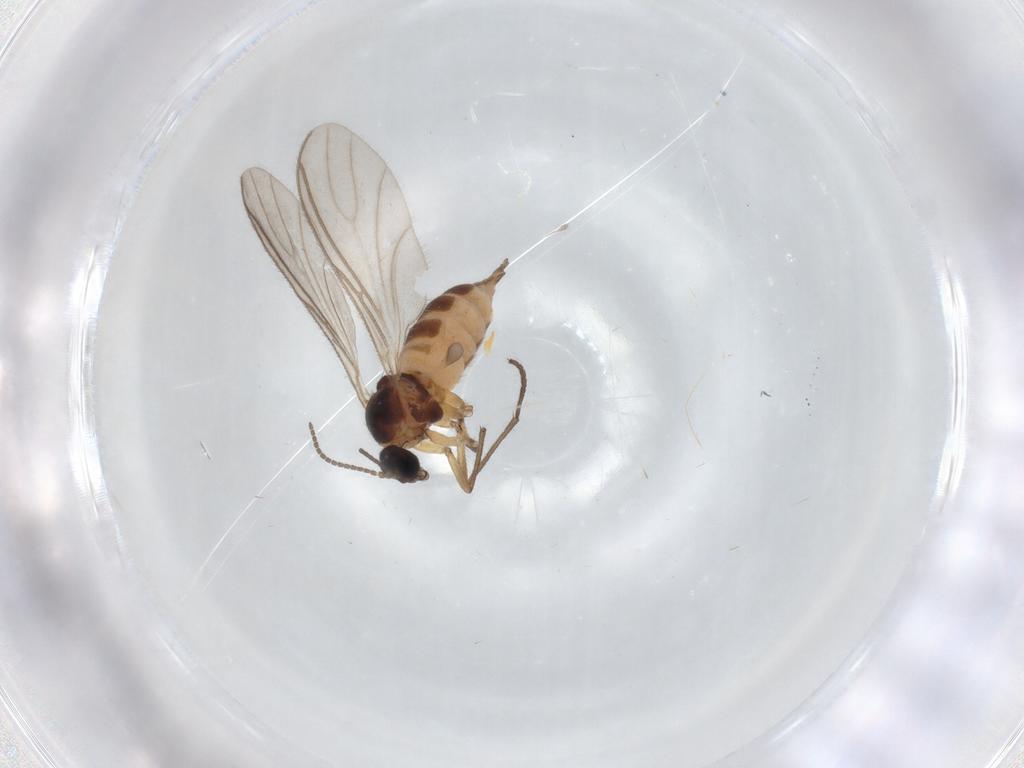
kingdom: Animalia
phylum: Arthropoda
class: Insecta
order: Diptera
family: Sciaridae
